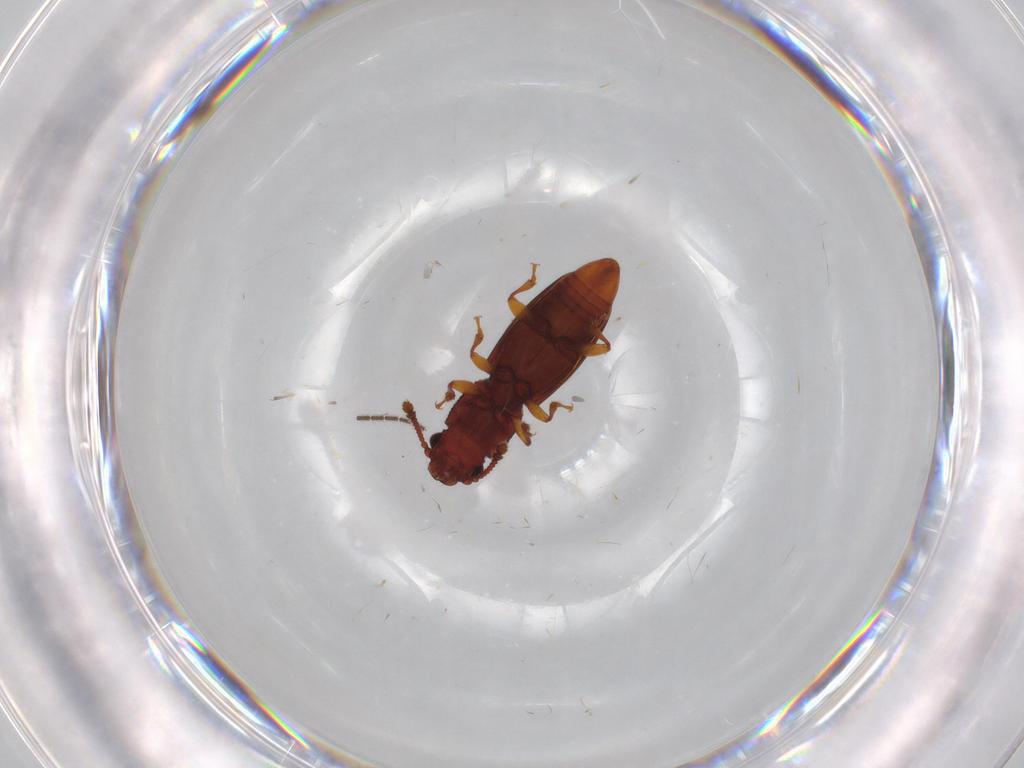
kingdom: Animalia
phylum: Arthropoda
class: Insecta
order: Coleoptera
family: Monotomidae
